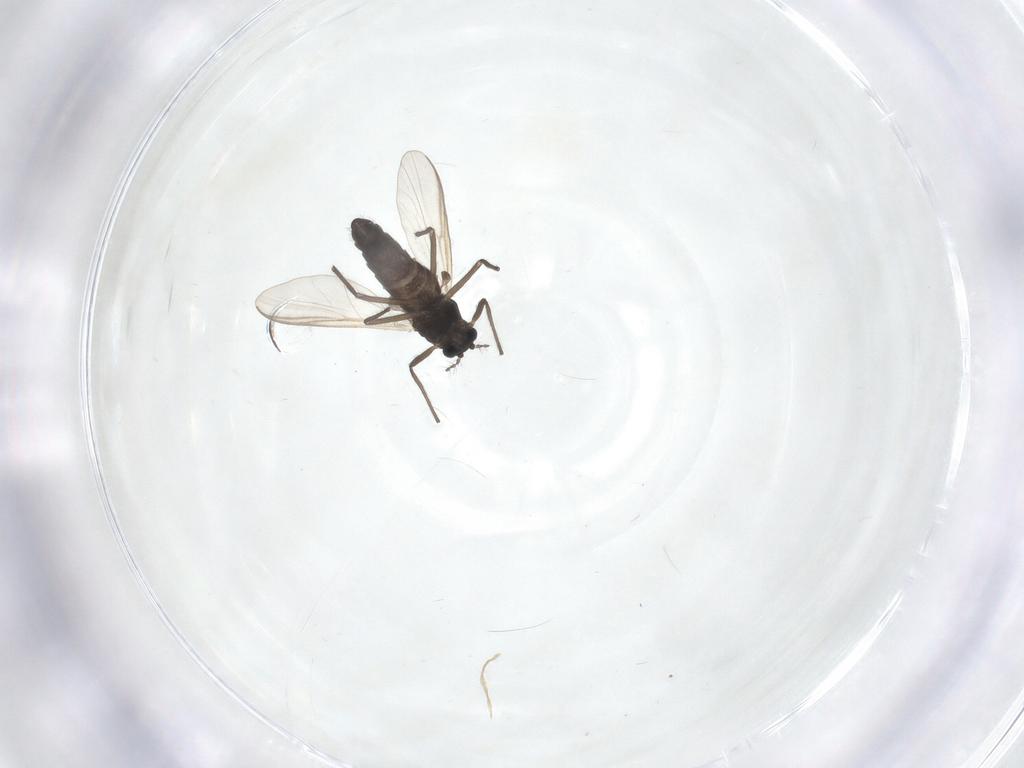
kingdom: Animalia
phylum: Arthropoda
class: Insecta
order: Diptera
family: Chironomidae
